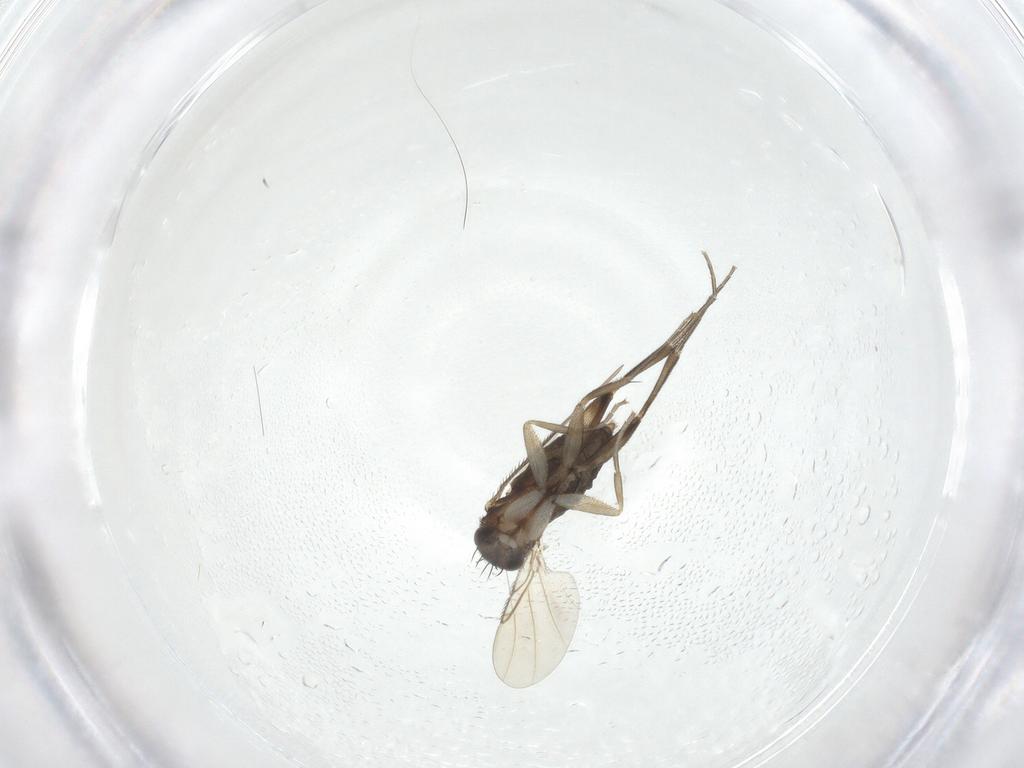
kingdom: Animalia
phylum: Arthropoda
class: Insecta
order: Diptera
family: Phoridae
